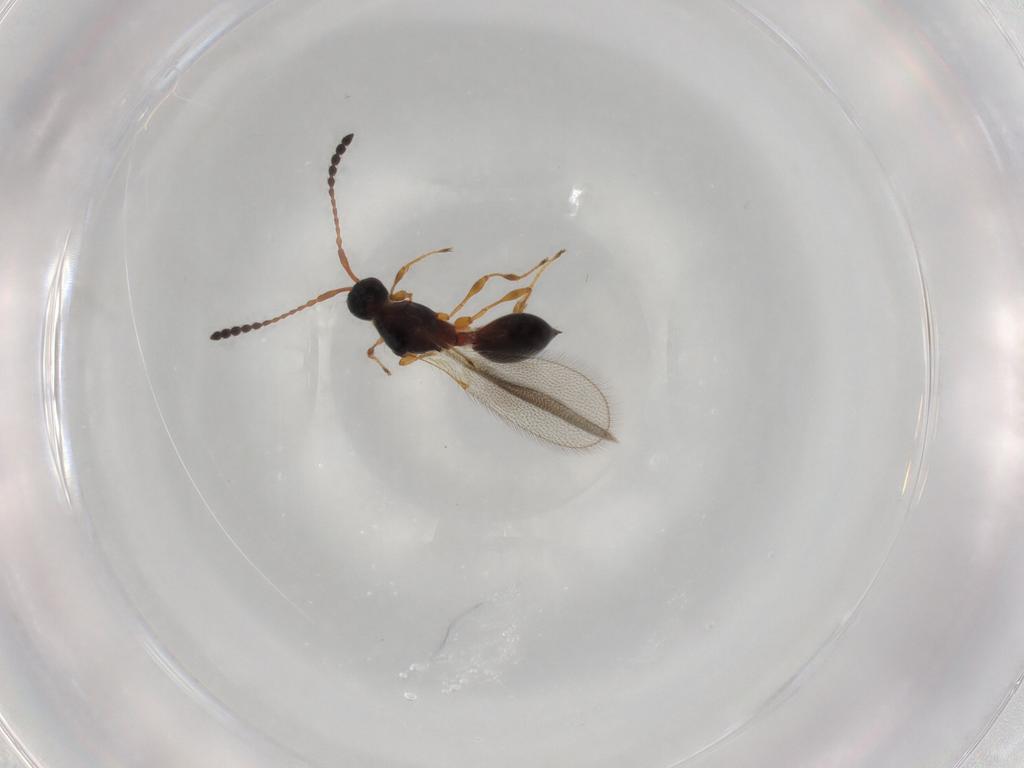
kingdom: Animalia
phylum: Arthropoda
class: Insecta
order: Hymenoptera
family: Diapriidae
